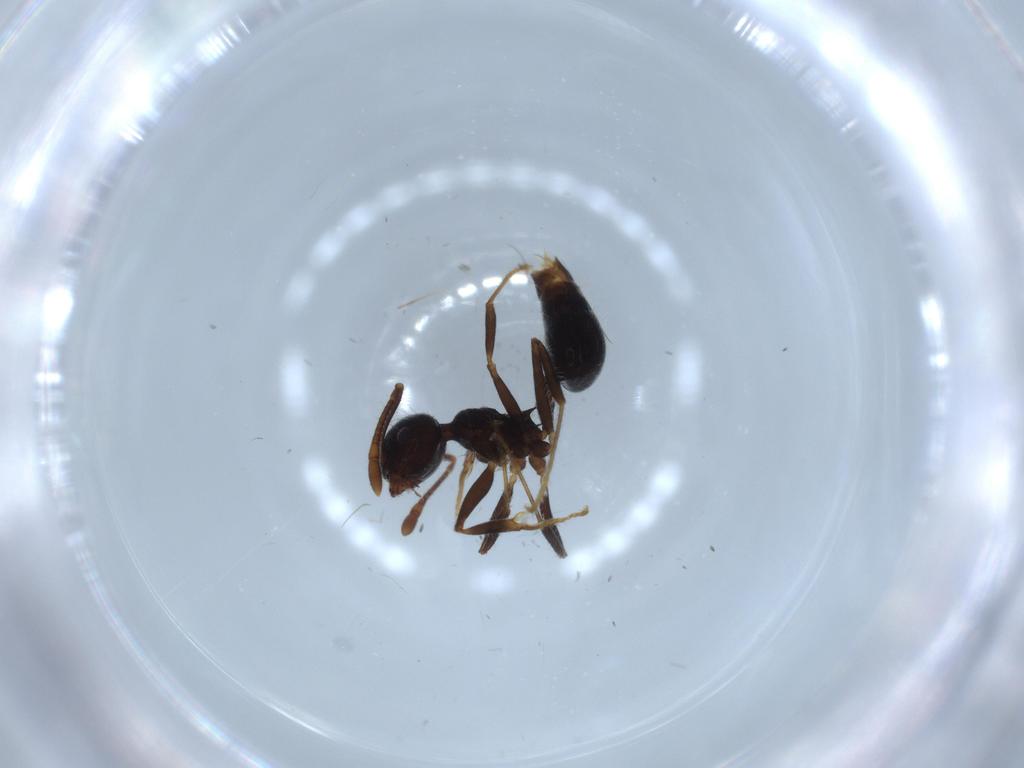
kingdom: Animalia
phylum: Arthropoda
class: Insecta
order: Hymenoptera
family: Formicidae
